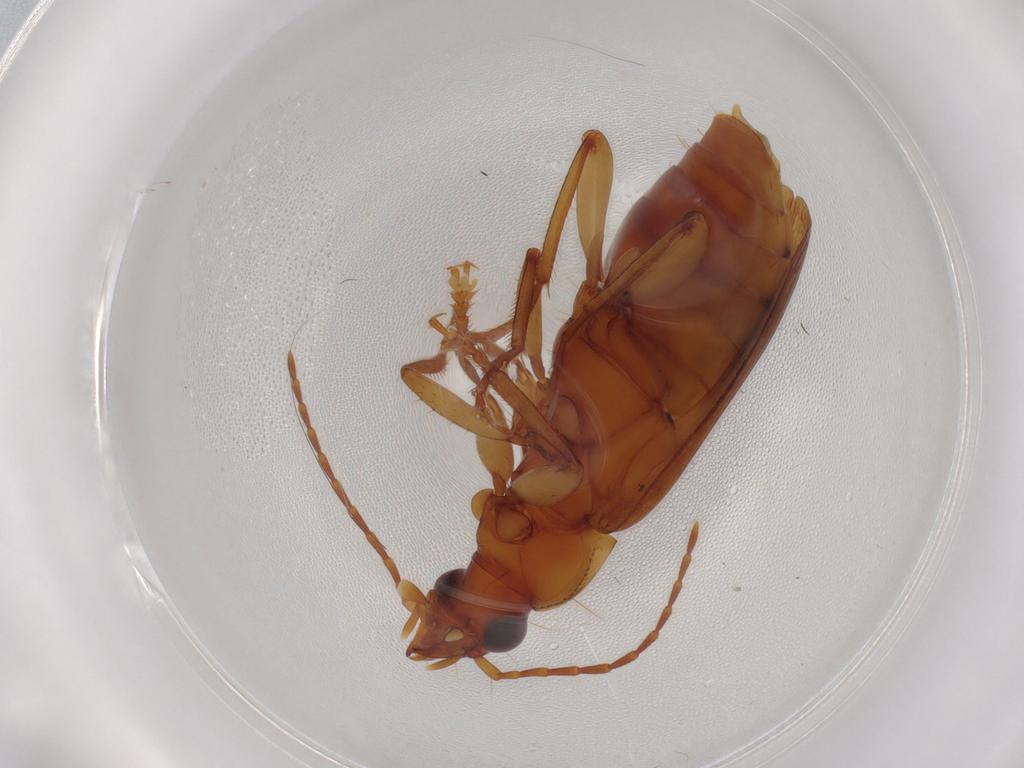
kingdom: Animalia
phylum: Arthropoda
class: Insecta
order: Coleoptera
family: Carabidae
